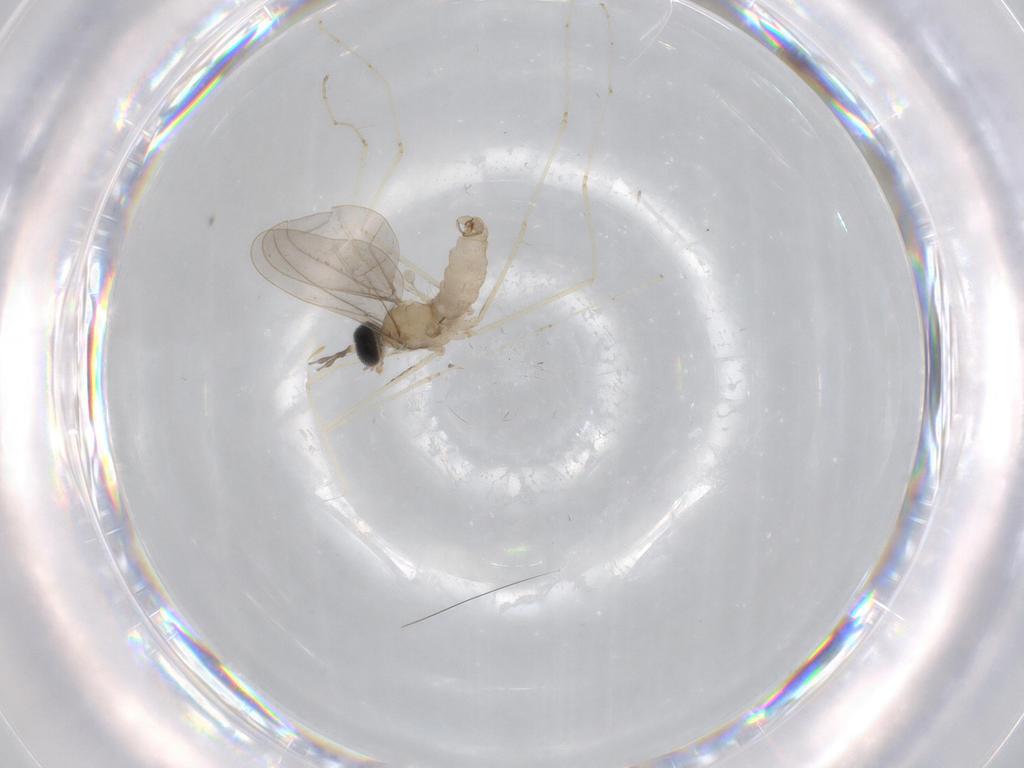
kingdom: Animalia
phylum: Arthropoda
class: Insecta
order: Diptera
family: Cecidomyiidae
